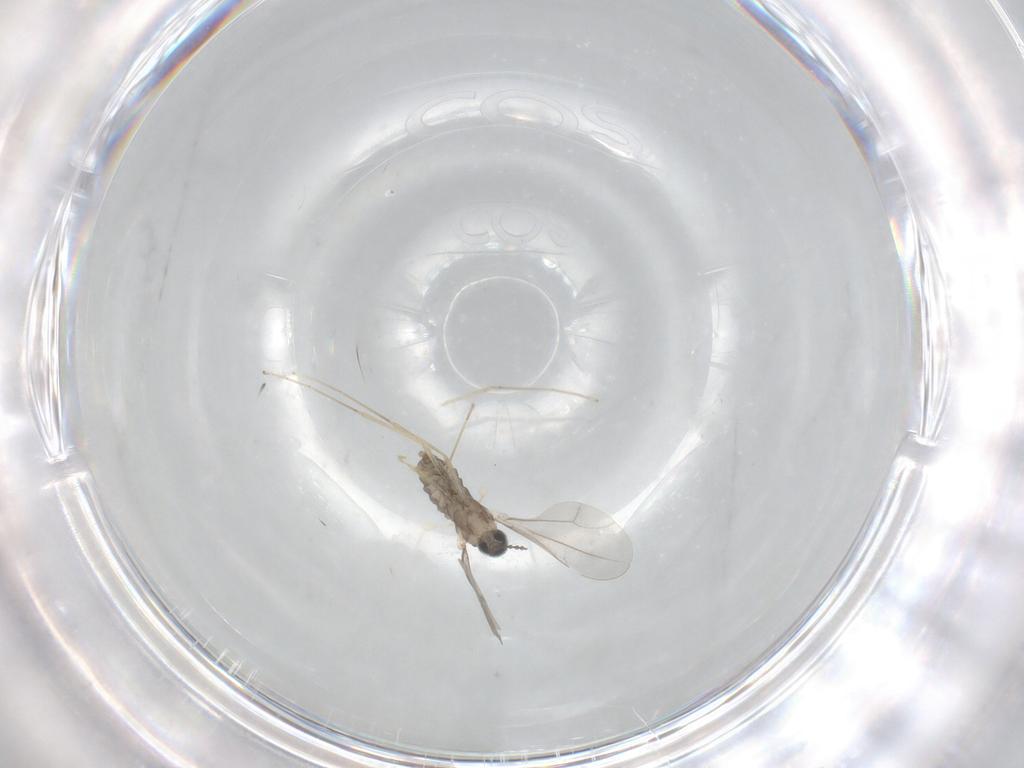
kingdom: Animalia
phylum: Arthropoda
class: Insecta
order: Diptera
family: Cecidomyiidae
